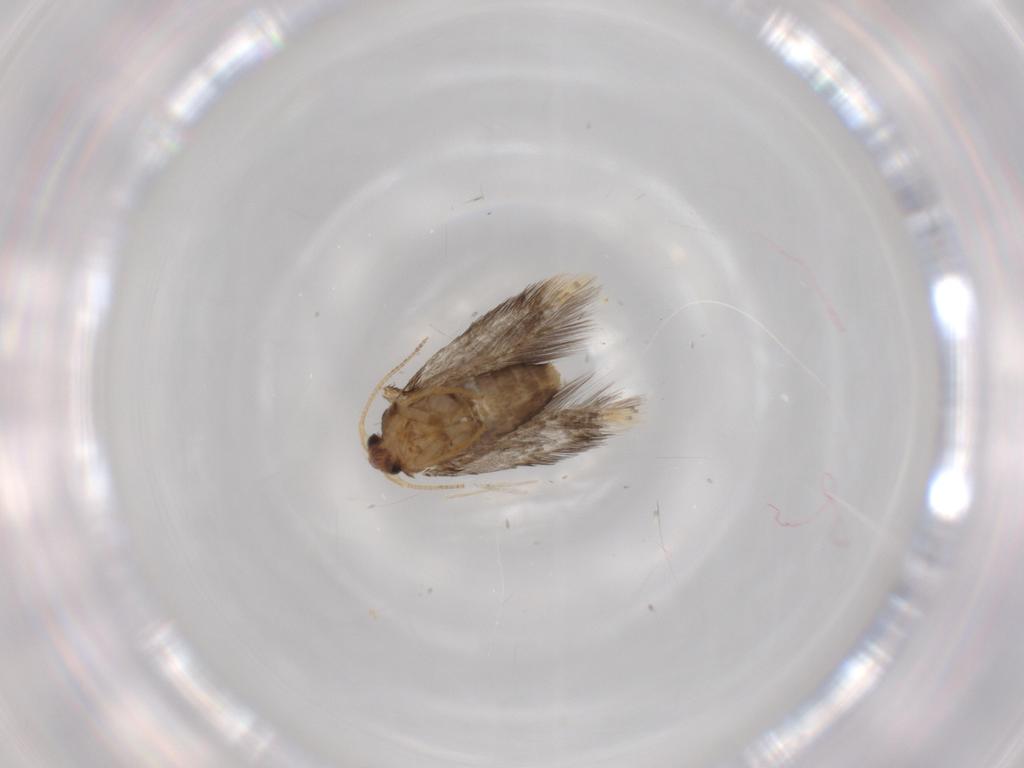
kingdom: Animalia
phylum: Arthropoda
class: Insecta
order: Lepidoptera
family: Nepticulidae
